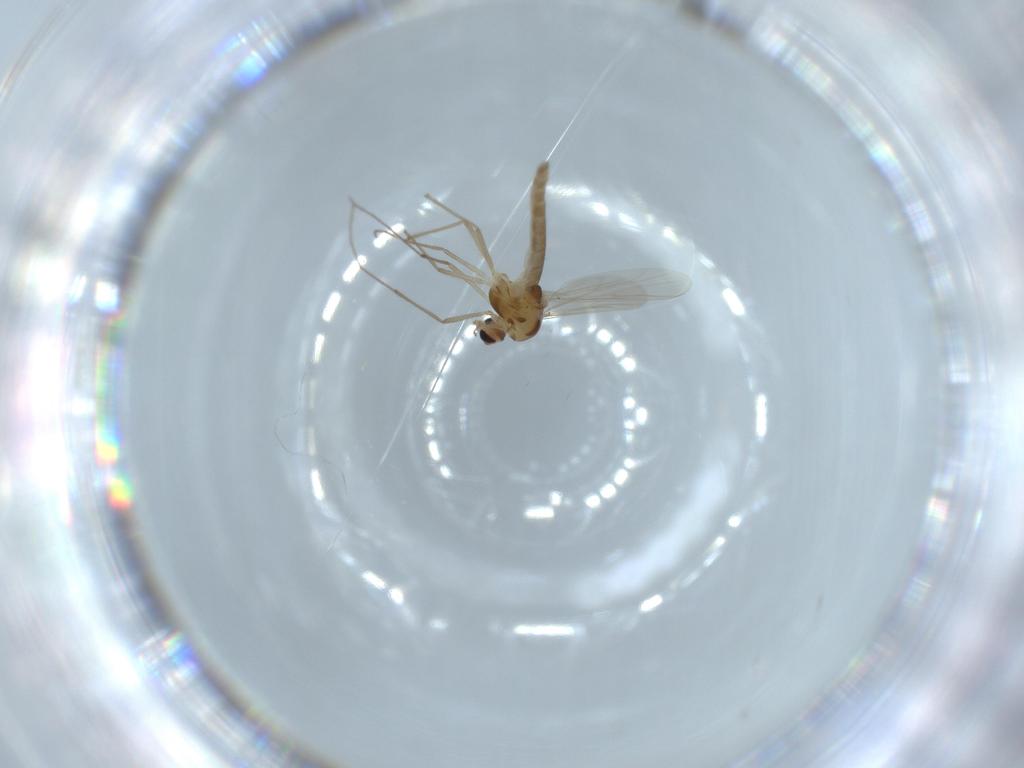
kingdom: Animalia
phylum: Arthropoda
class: Insecta
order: Diptera
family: Chironomidae
